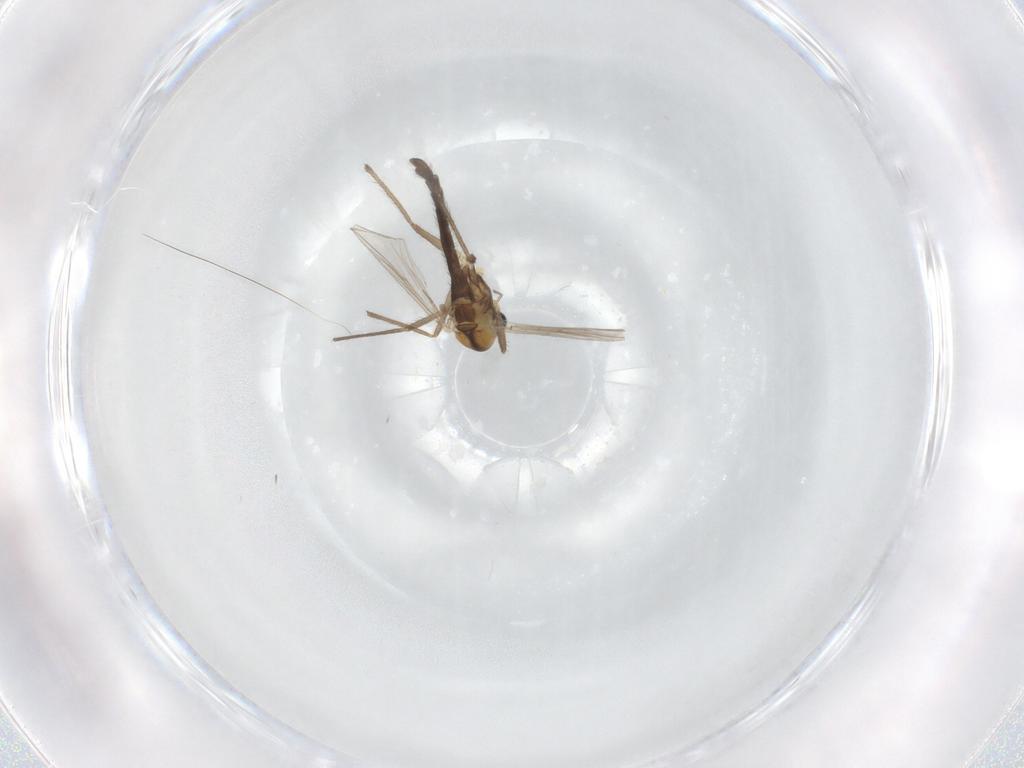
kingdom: Animalia
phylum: Arthropoda
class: Insecta
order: Diptera
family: Chironomidae
